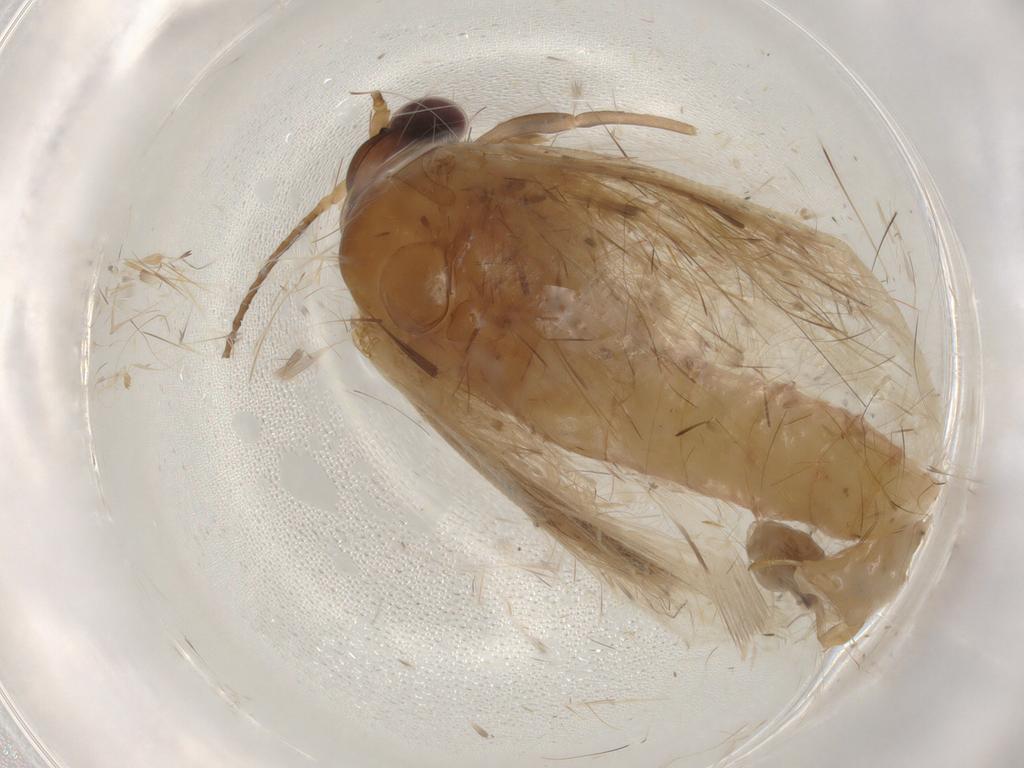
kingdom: Animalia
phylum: Arthropoda
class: Insecta
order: Lepidoptera
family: Erebidae
